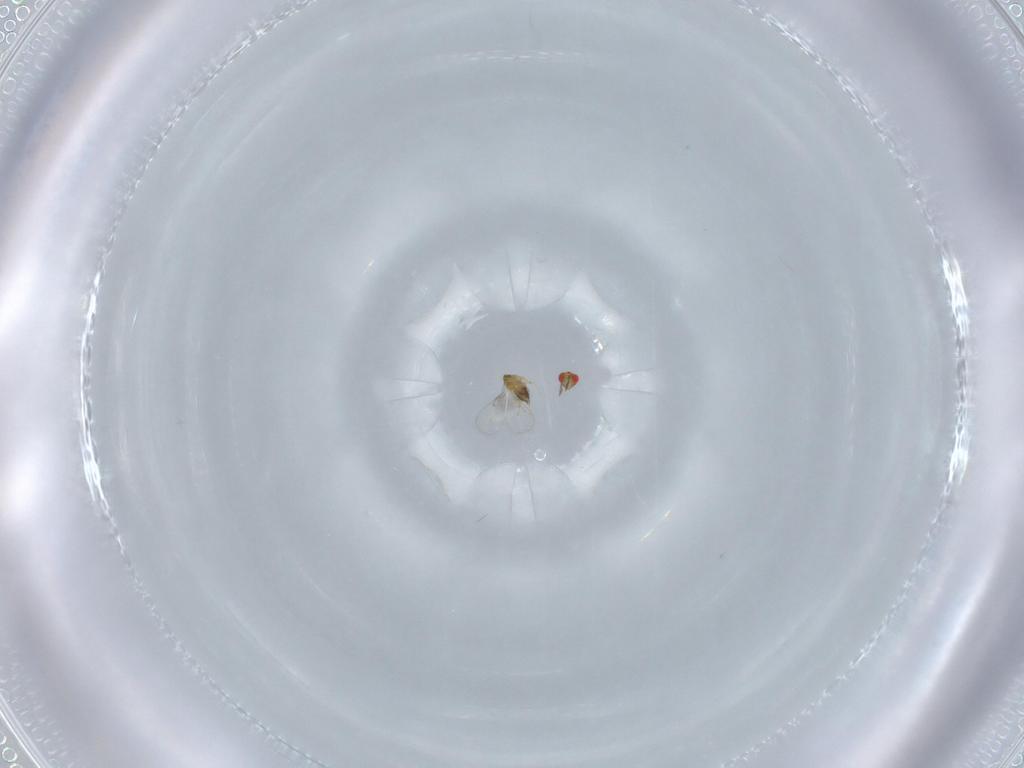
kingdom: Animalia
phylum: Arthropoda
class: Insecta
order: Hymenoptera
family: Trichogrammatidae
